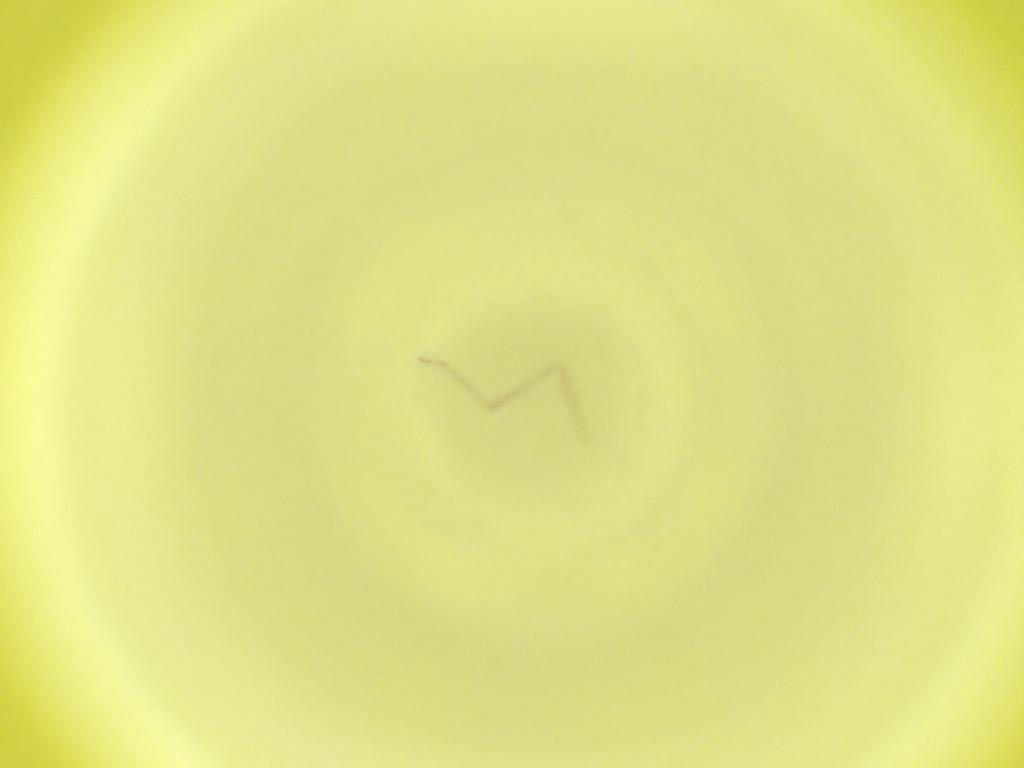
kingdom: Animalia
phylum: Arthropoda
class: Insecta
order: Diptera
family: Cecidomyiidae
